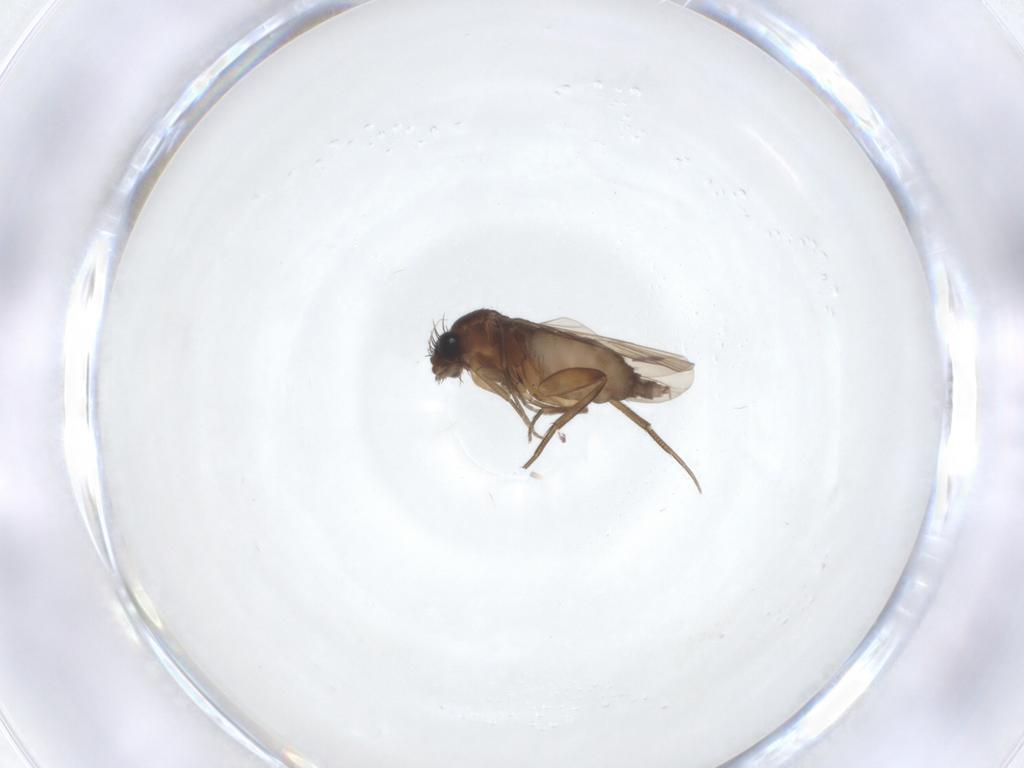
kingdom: Animalia
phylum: Arthropoda
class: Insecta
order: Diptera
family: Phoridae
